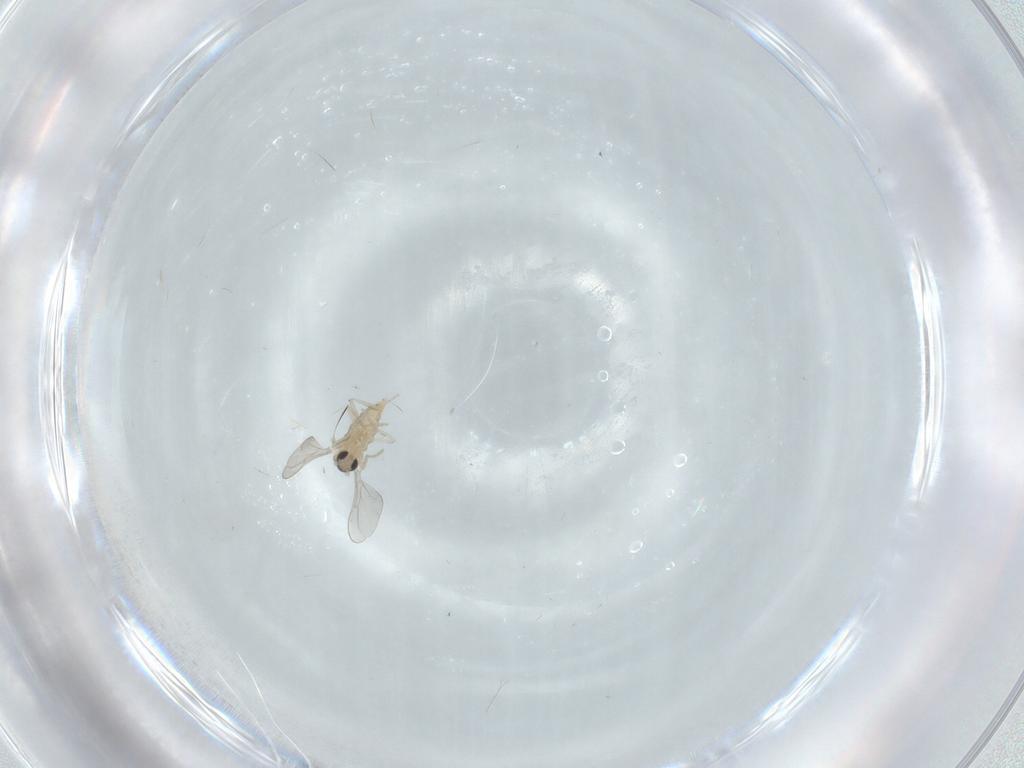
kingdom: Animalia
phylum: Arthropoda
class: Insecta
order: Diptera
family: Cecidomyiidae
